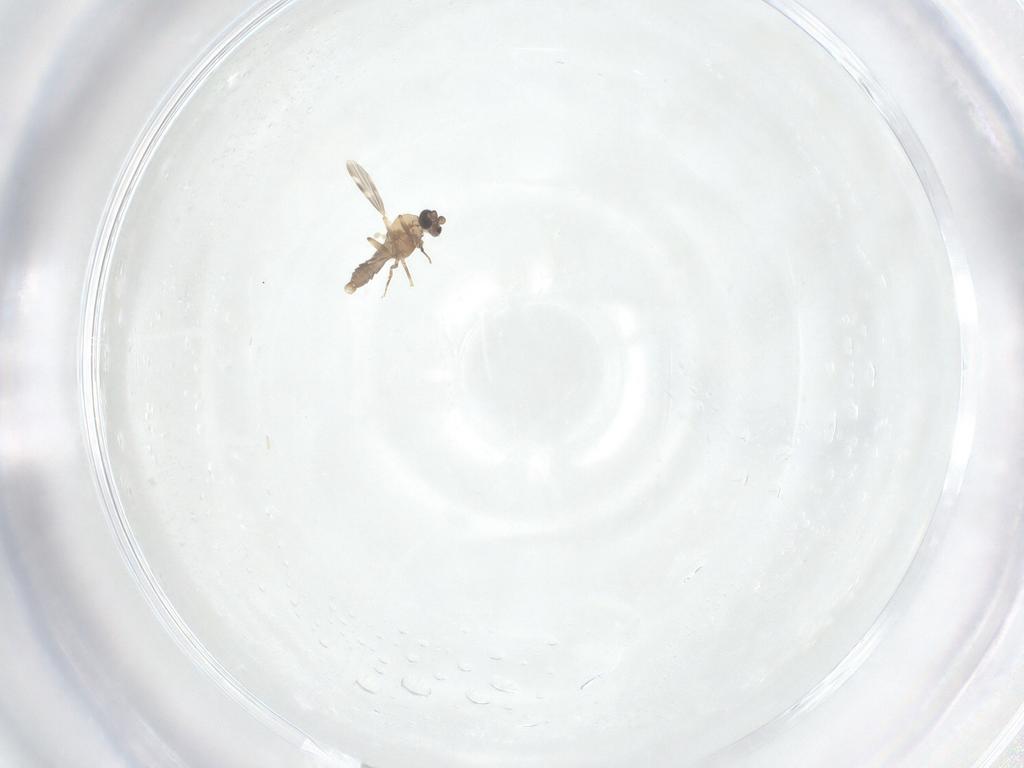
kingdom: Animalia
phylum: Arthropoda
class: Insecta
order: Diptera
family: Ceratopogonidae
